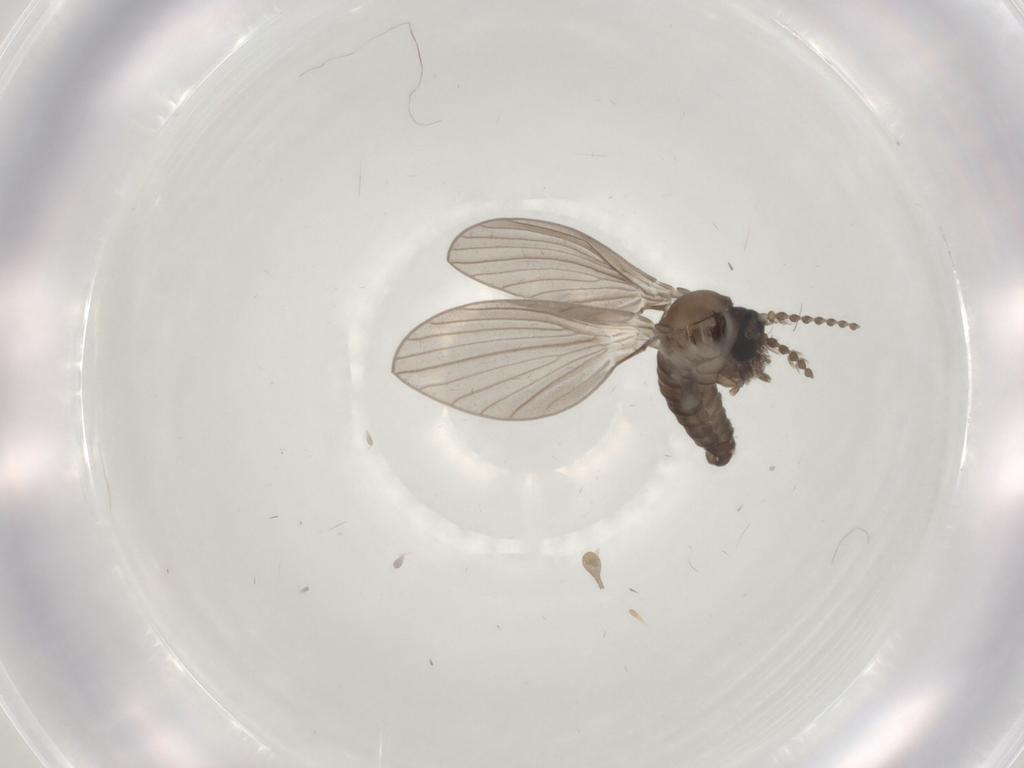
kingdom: Animalia
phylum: Arthropoda
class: Insecta
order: Diptera
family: Psychodidae
